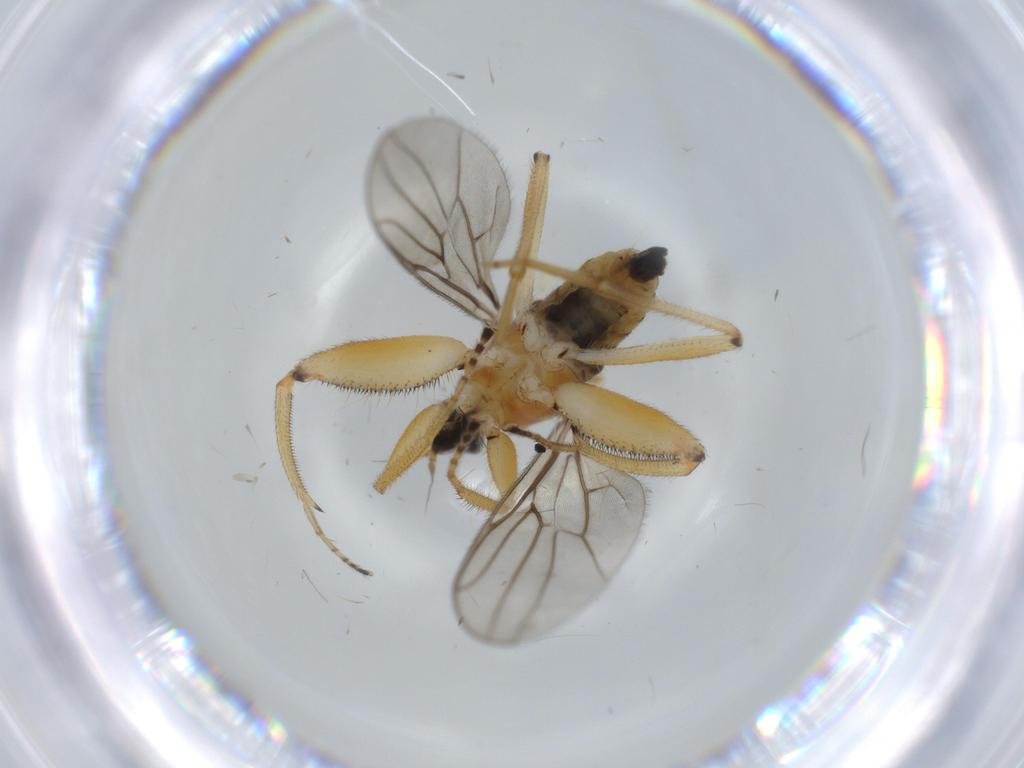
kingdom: Animalia
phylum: Arthropoda
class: Insecta
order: Diptera
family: Hybotidae
